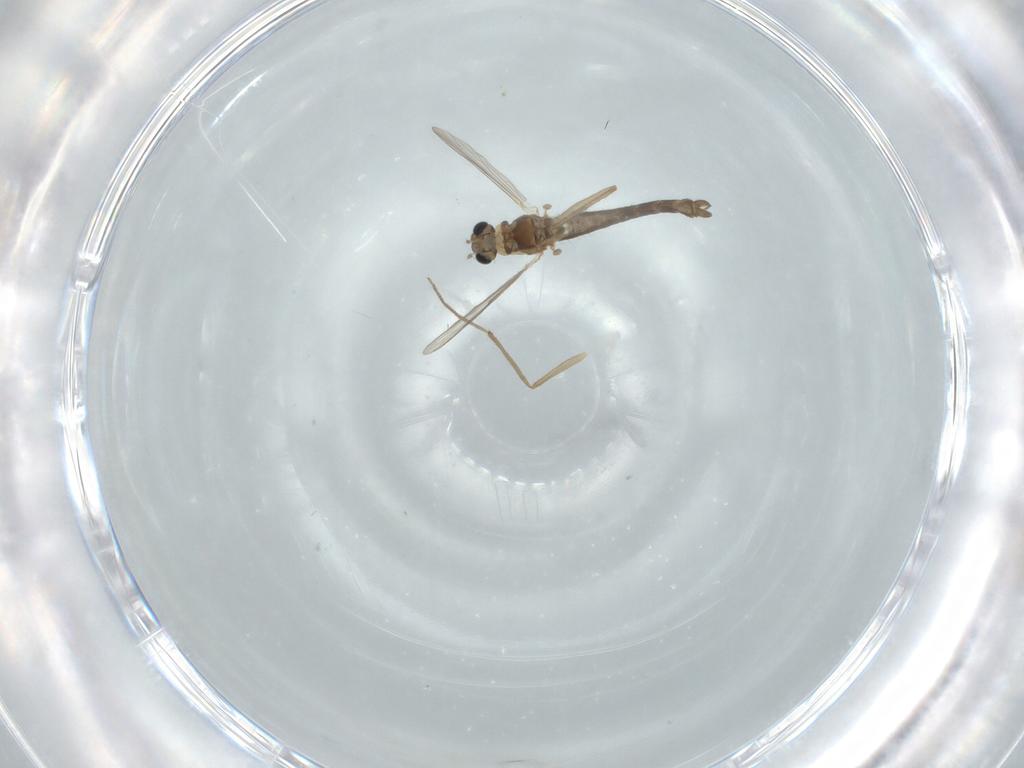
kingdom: Animalia
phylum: Arthropoda
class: Insecta
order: Diptera
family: Chironomidae
